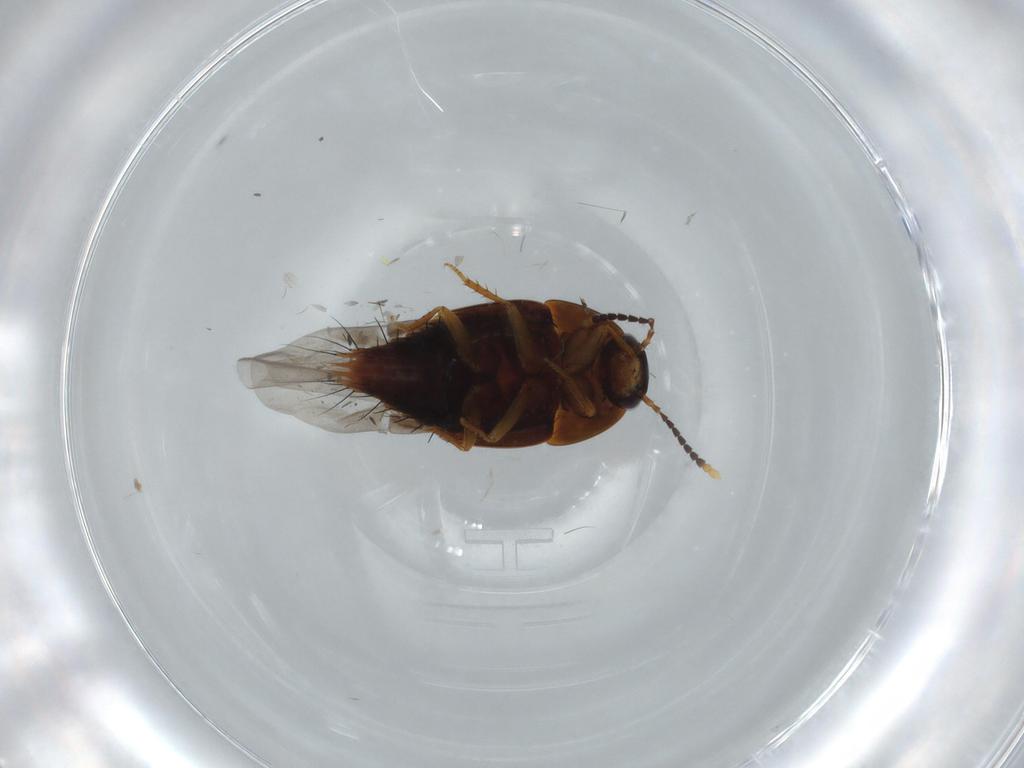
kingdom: Animalia
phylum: Arthropoda
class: Insecta
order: Coleoptera
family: Staphylinidae
